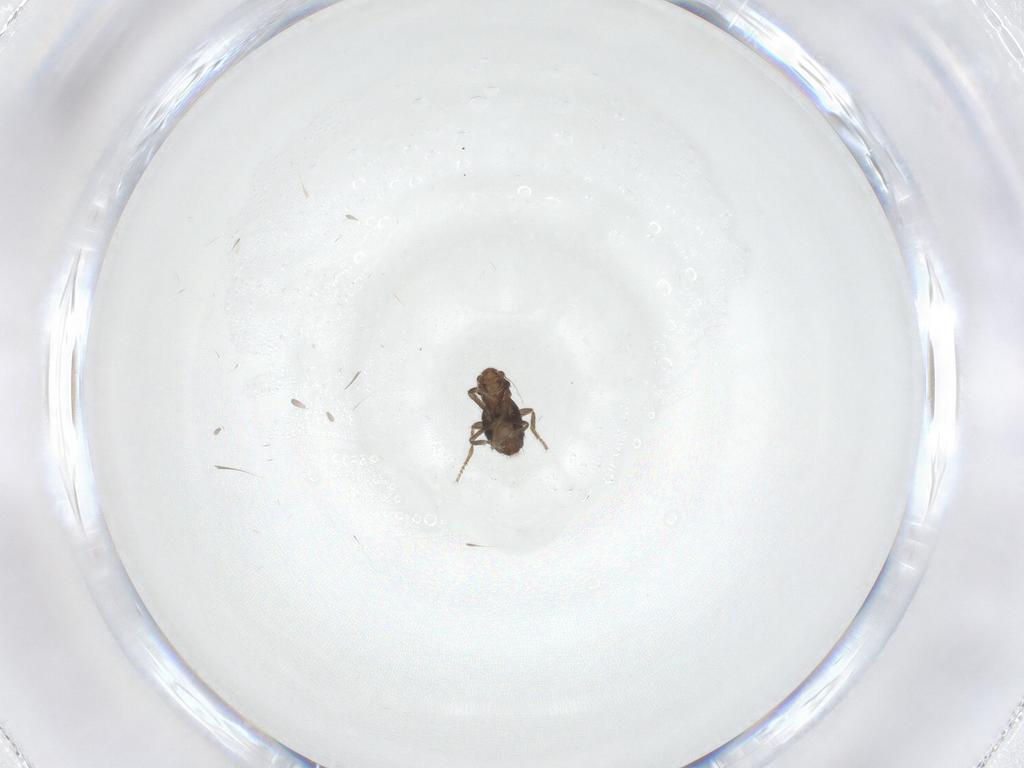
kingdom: Animalia
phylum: Arthropoda
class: Insecta
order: Diptera
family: Phoridae
